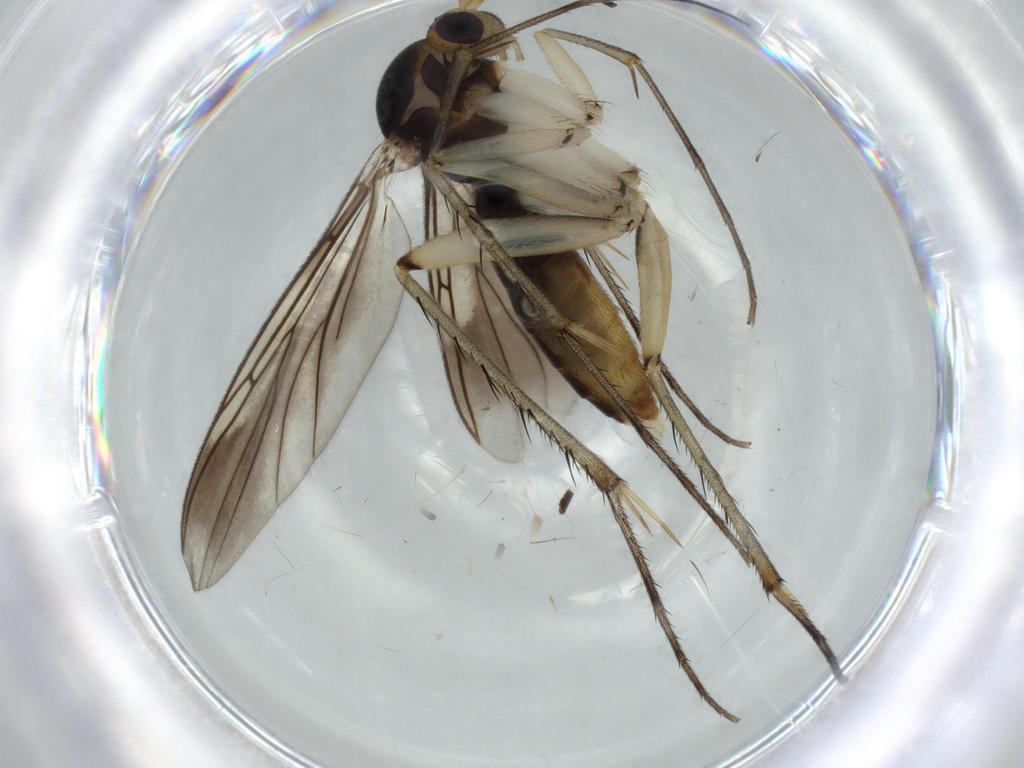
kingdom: Animalia
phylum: Arthropoda
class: Insecta
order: Diptera
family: Mycetophilidae
